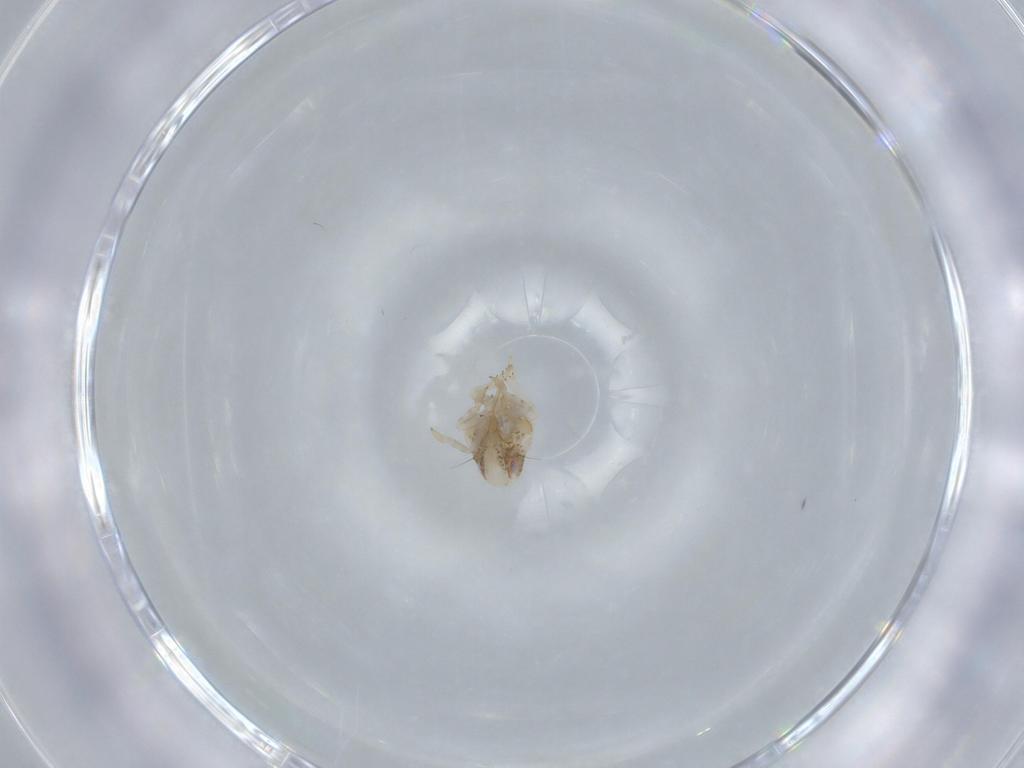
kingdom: Animalia
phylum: Arthropoda
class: Insecta
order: Hemiptera
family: Acanaloniidae
